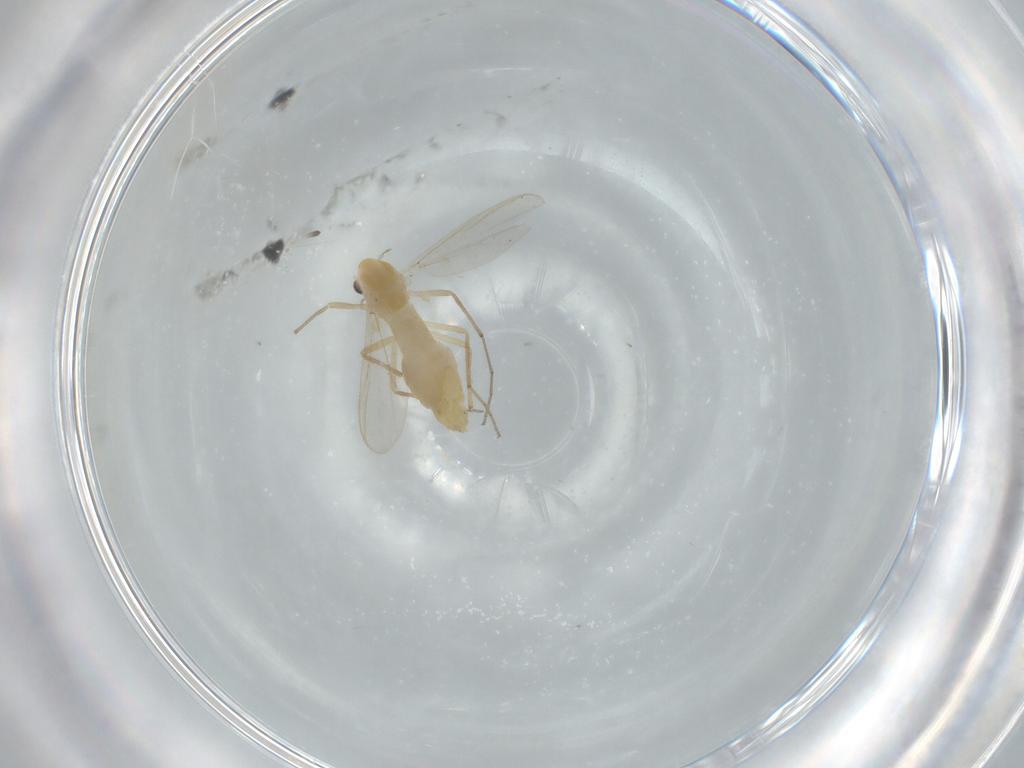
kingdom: Animalia
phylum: Arthropoda
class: Insecta
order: Diptera
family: Chironomidae
